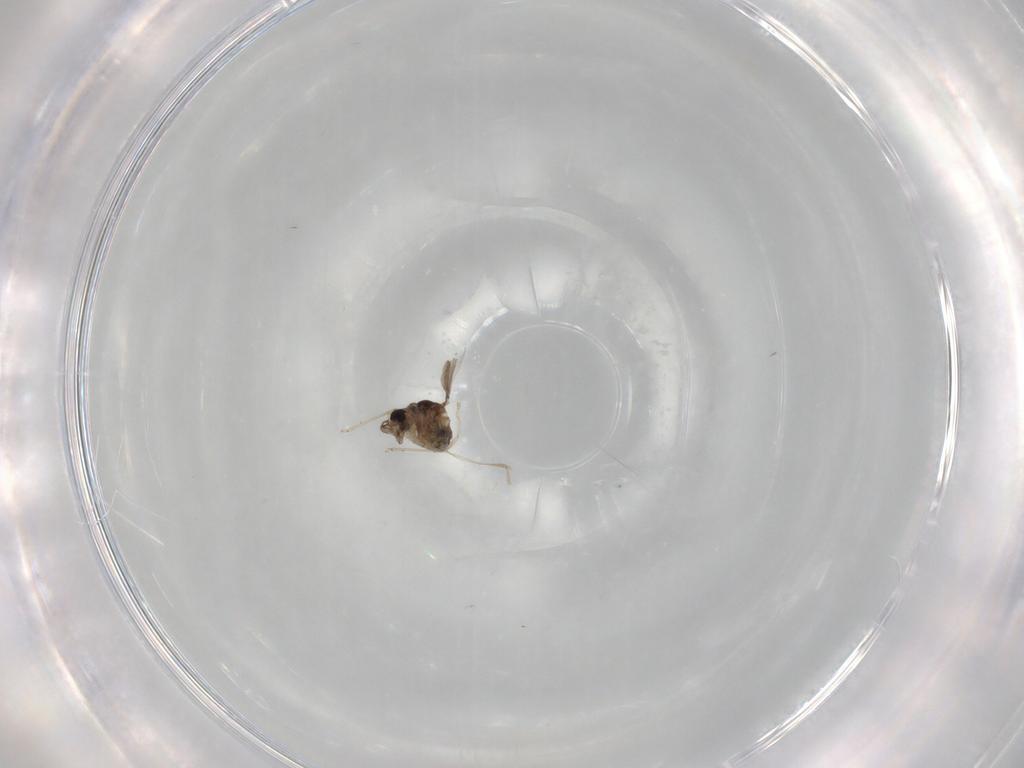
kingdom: Animalia
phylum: Arthropoda
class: Insecta
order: Diptera
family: Cecidomyiidae
